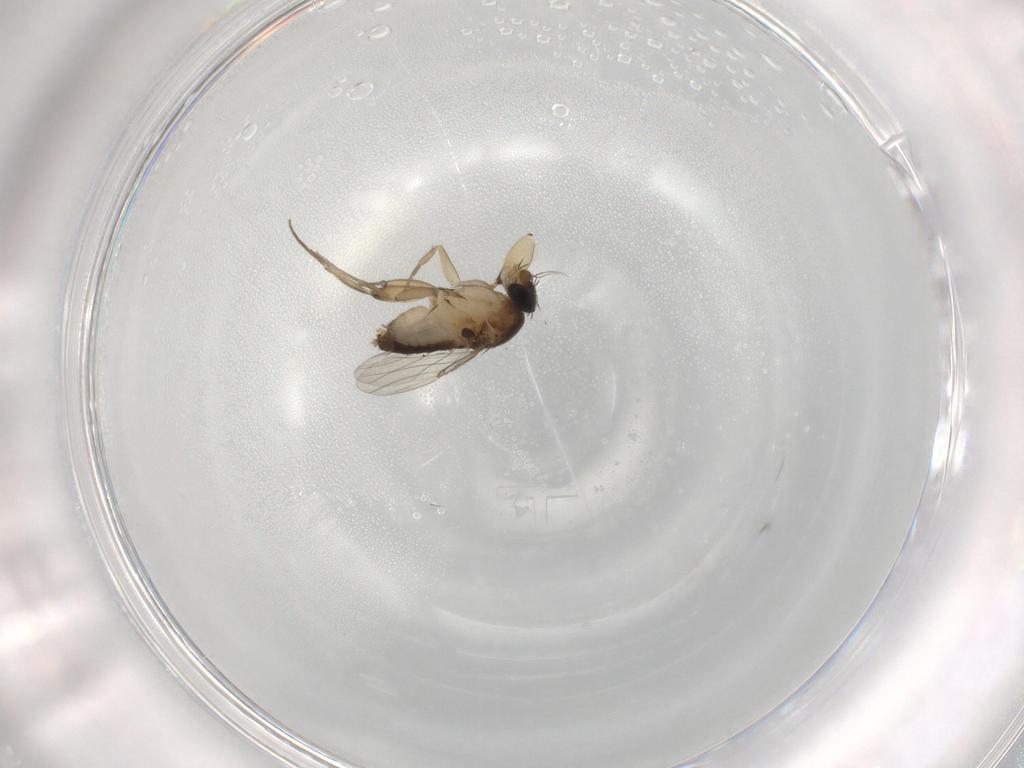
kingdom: Animalia
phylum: Arthropoda
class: Insecta
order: Diptera
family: Phoridae
